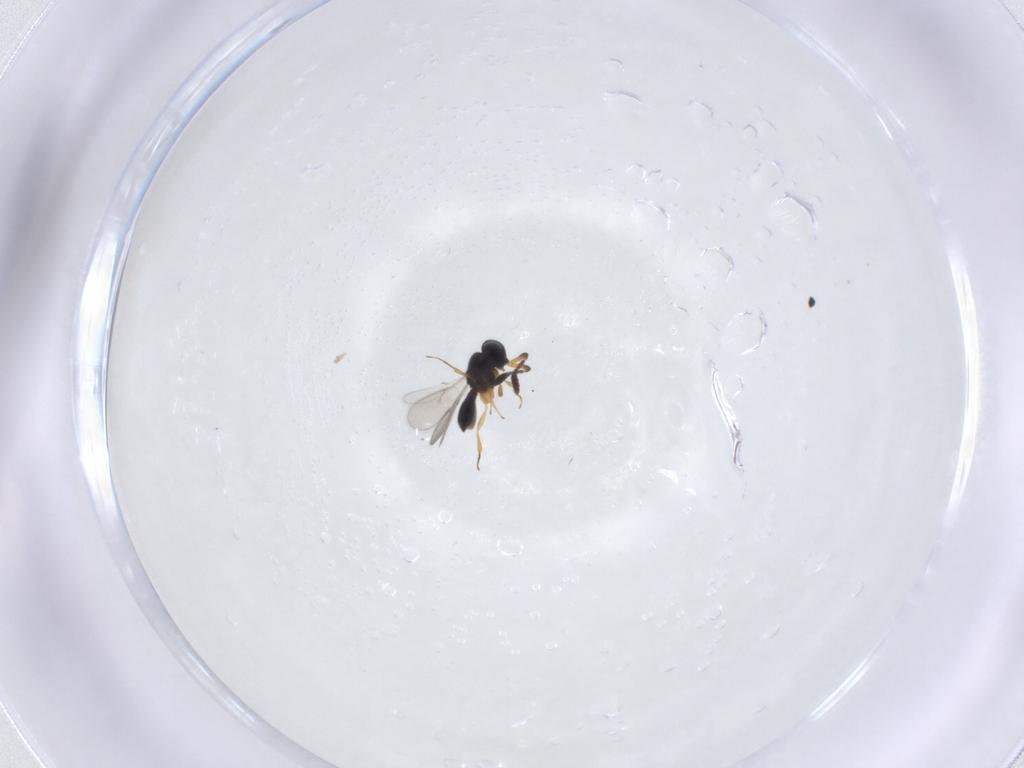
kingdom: Animalia
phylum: Arthropoda
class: Insecta
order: Hymenoptera
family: Scelionidae
